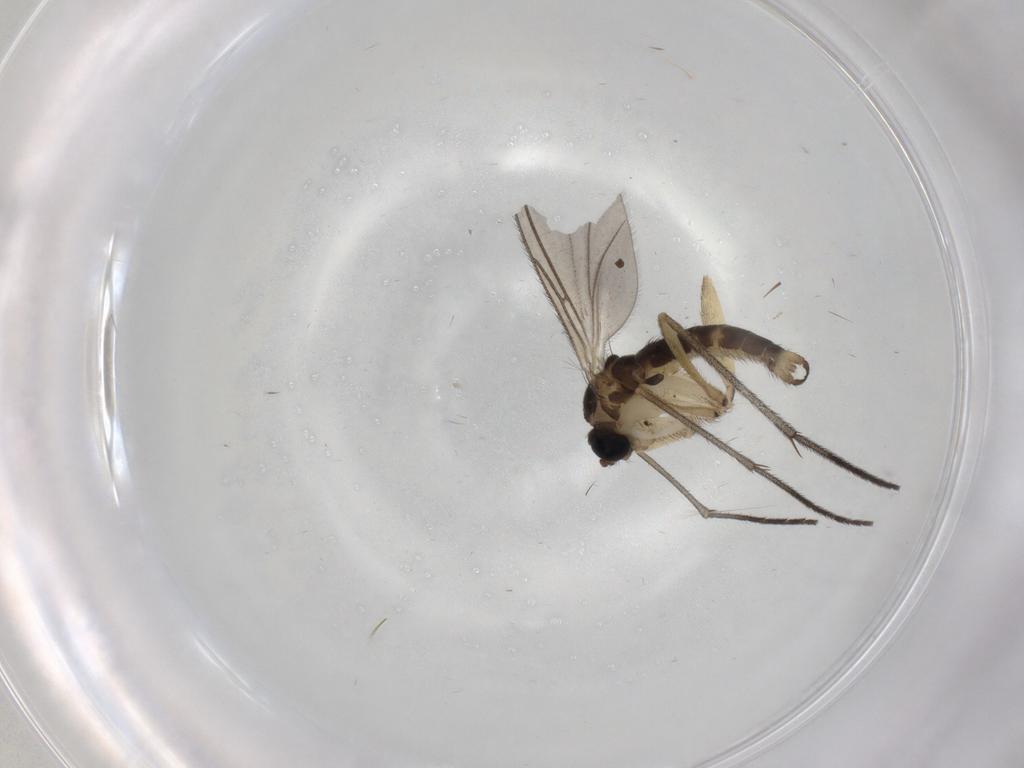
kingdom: Animalia
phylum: Arthropoda
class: Insecta
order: Diptera
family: Sciaridae
